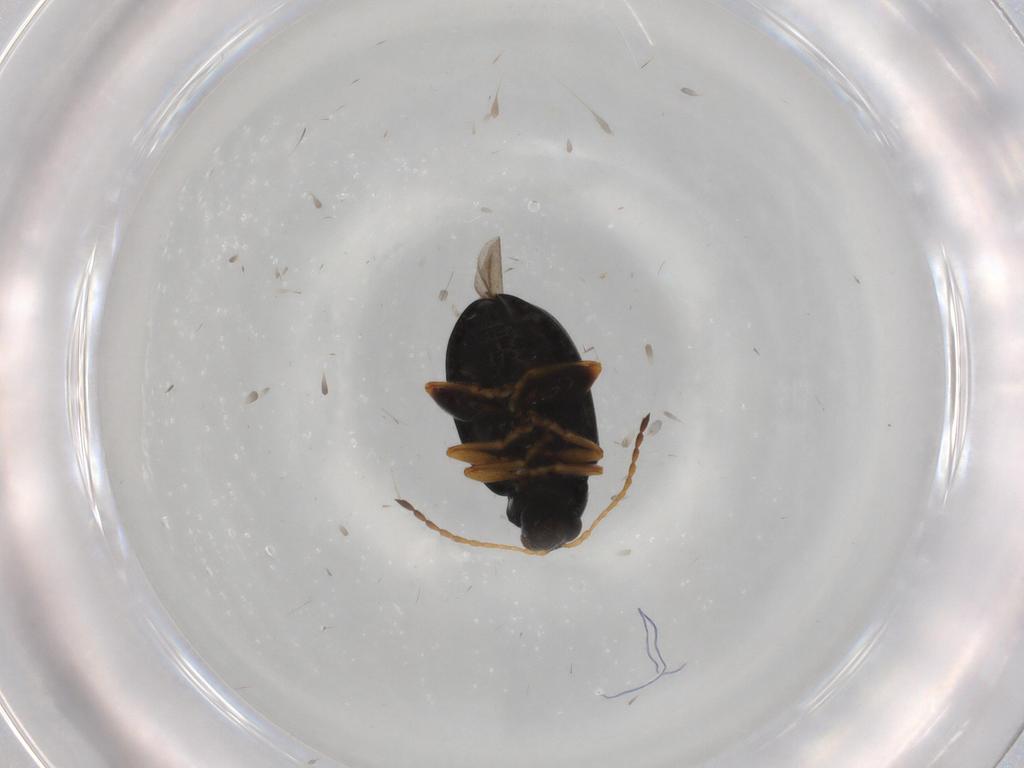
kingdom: Animalia
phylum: Arthropoda
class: Insecta
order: Coleoptera
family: Chrysomelidae
